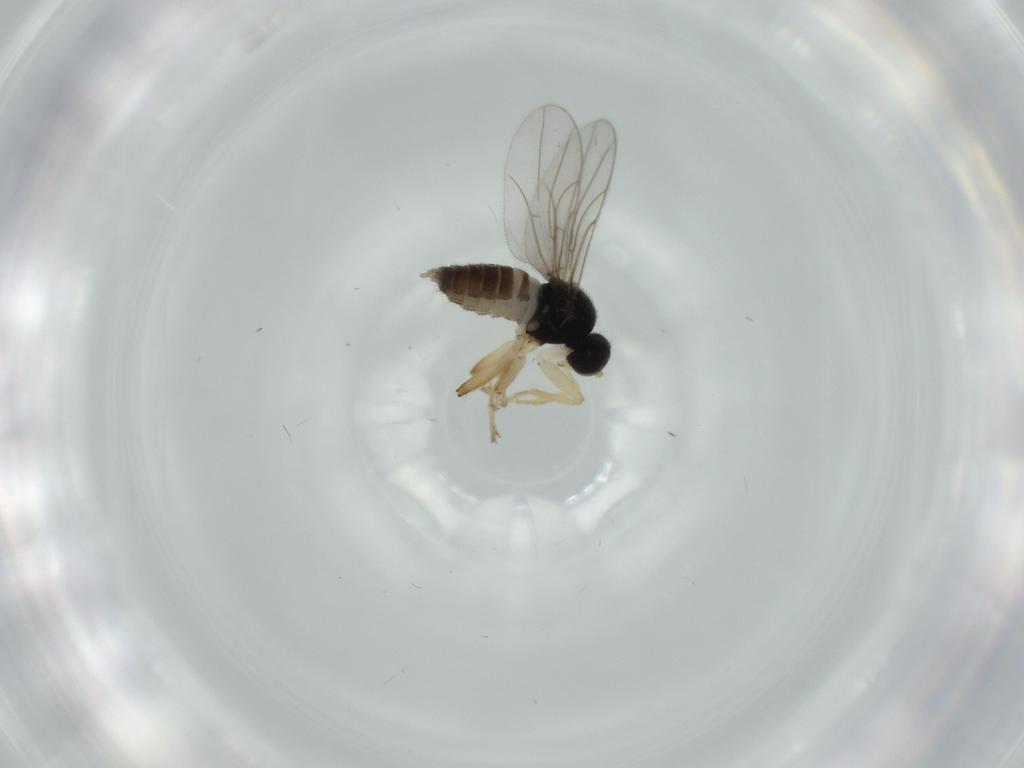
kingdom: Animalia
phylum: Arthropoda
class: Insecta
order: Diptera
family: Hybotidae
